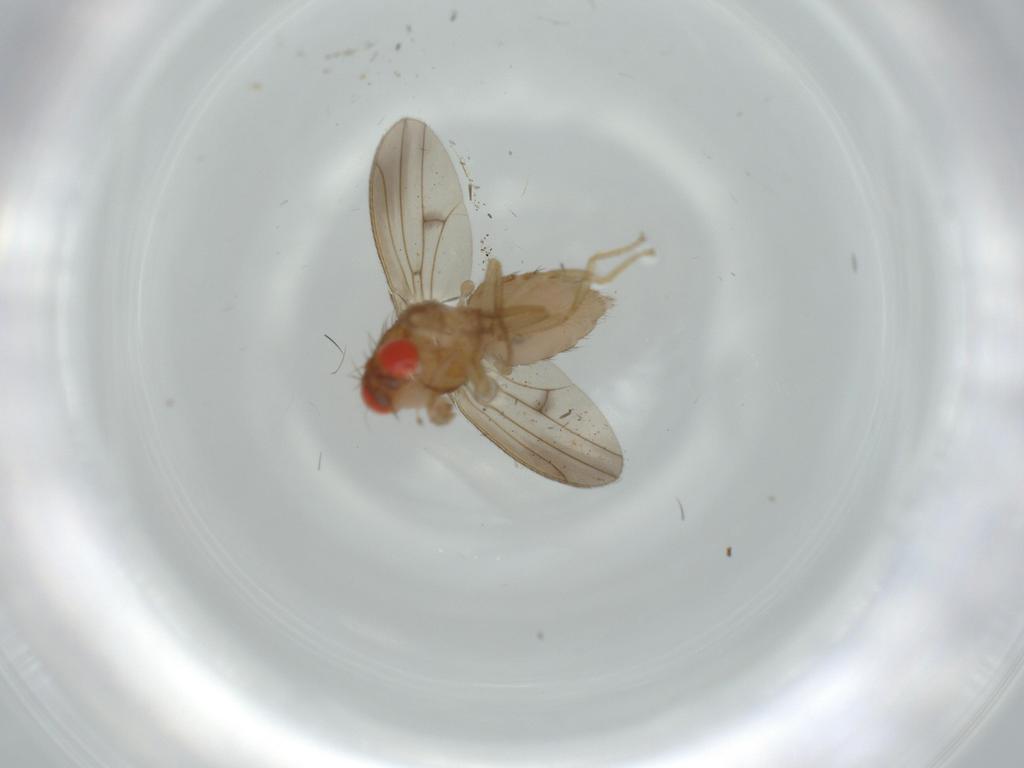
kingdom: Animalia
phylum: Arthropoda
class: Insecta
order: Diptera
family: Drosophilidae
